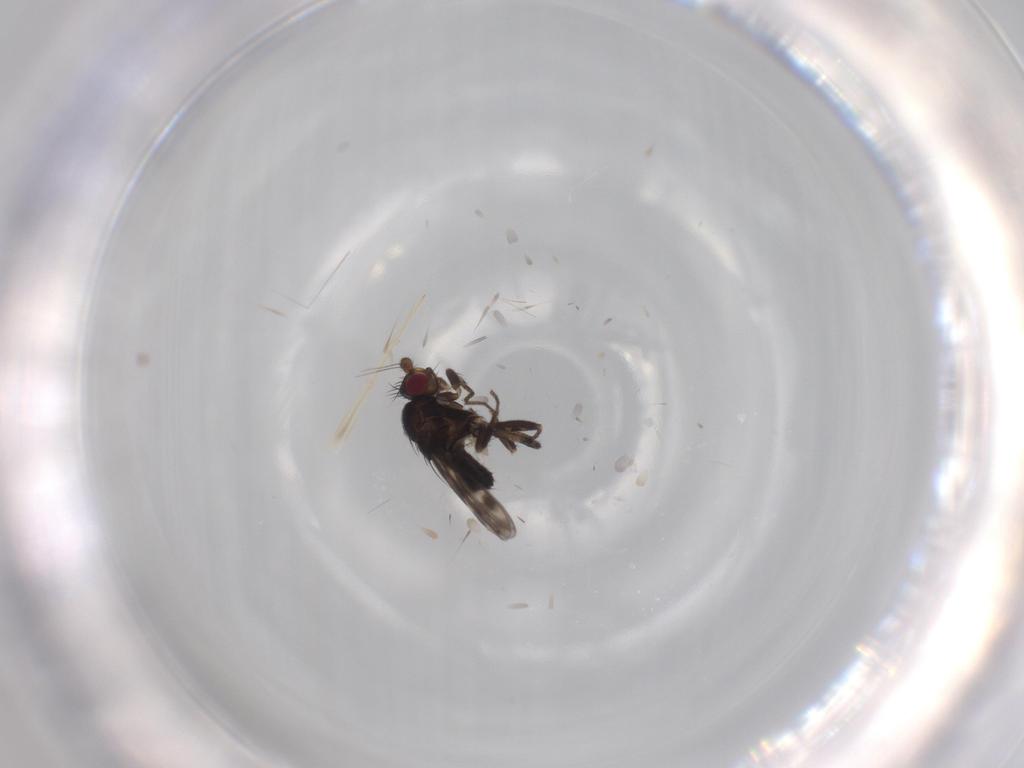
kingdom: Animalia
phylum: Arthropoda
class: Insecta
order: Diptera
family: Sphaeroceridae
